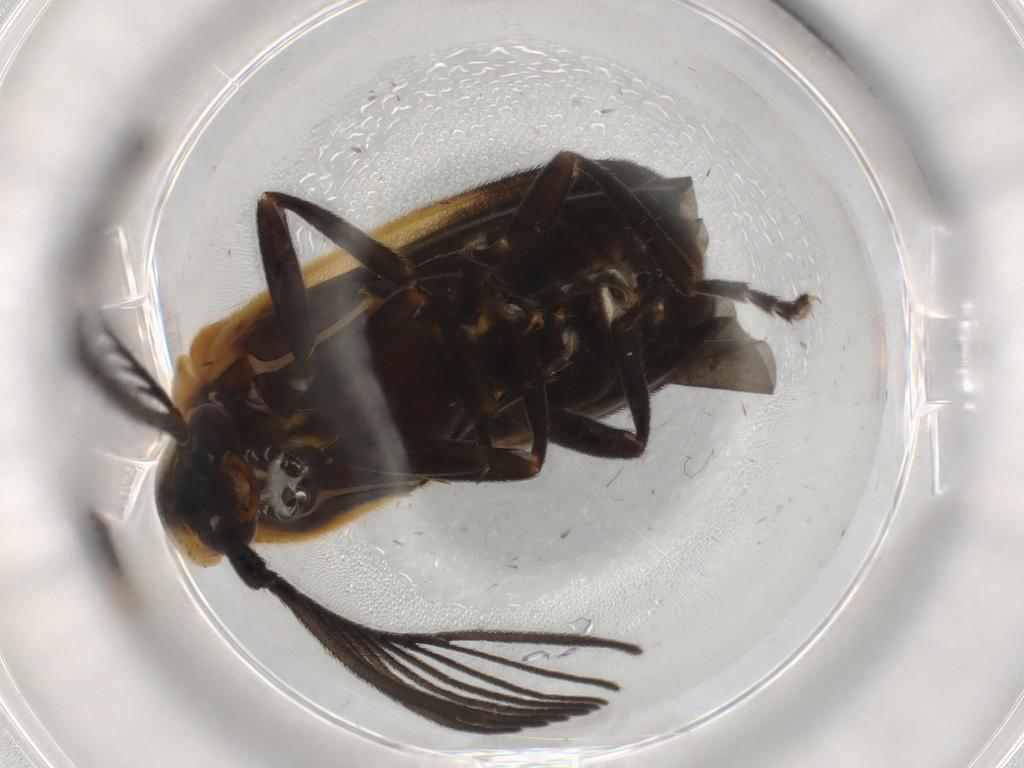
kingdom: Animalia
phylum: Arthropoda
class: Insecta
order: Coleoptera
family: Lampyridae
